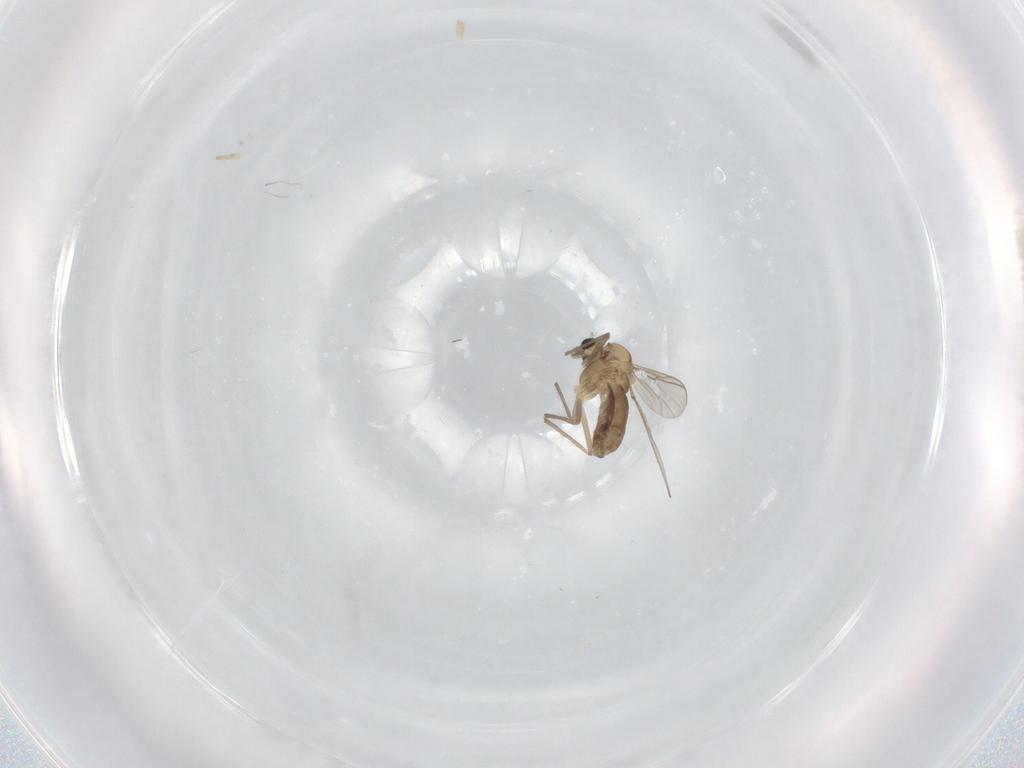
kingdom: Animalia
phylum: Arthropoda
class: Insecta
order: Diptera
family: Chironomidae
